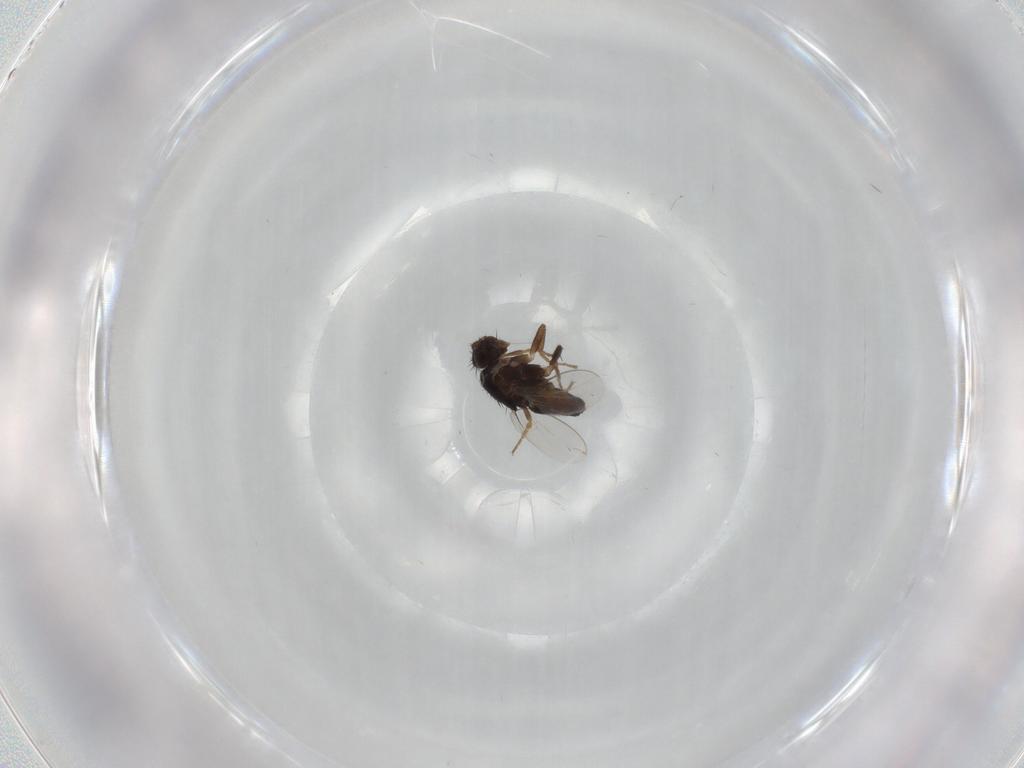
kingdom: Animalia
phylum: Arthropoda
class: Insecta
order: Diptera
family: Sphaeroceridae
